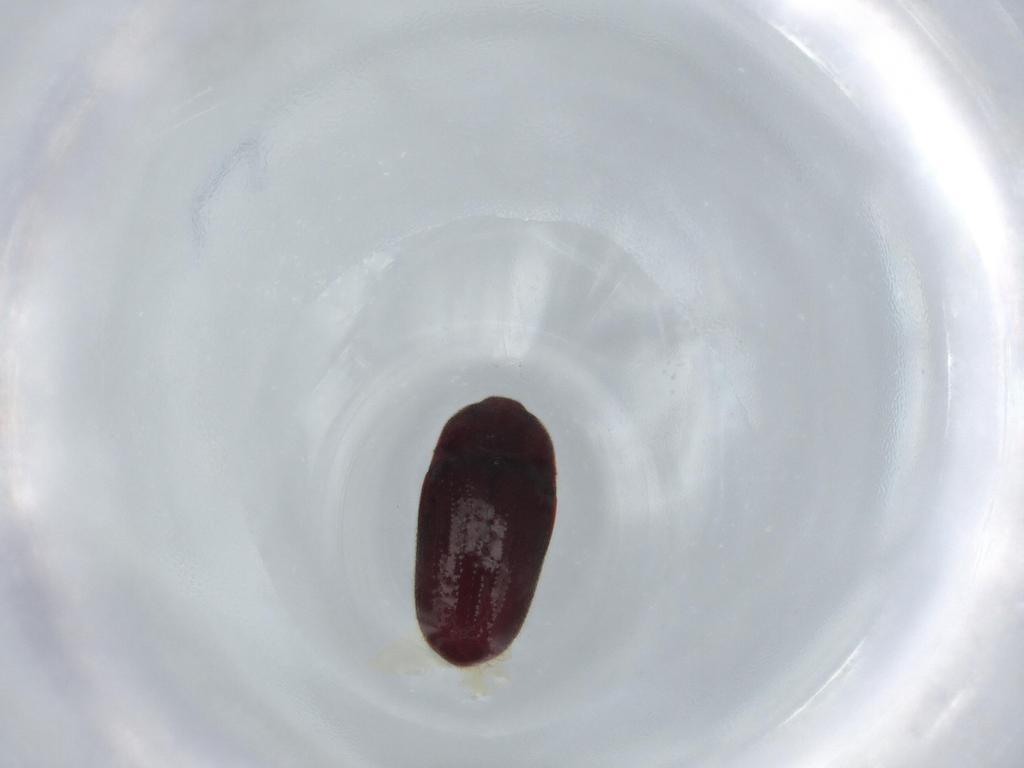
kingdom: Animalia
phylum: Arthropoda
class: Insecta
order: Coleoptera
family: Throscidae
